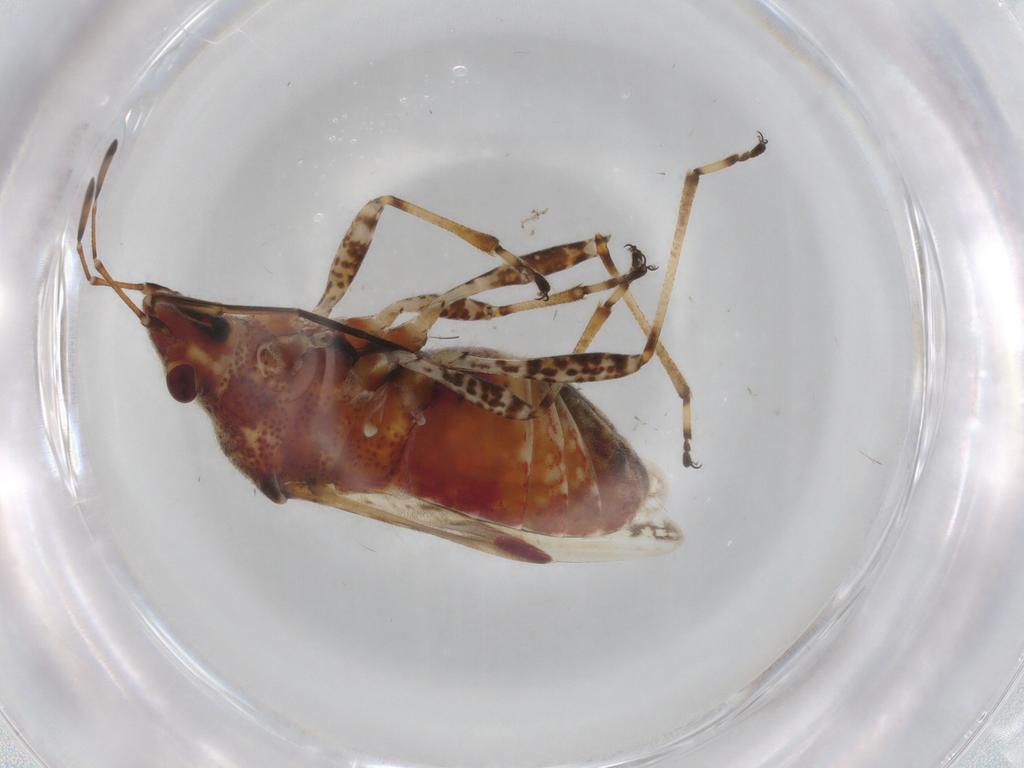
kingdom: Animalia
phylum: Arthropoda
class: Insecta
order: Hemiptera
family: Lygaeidae
